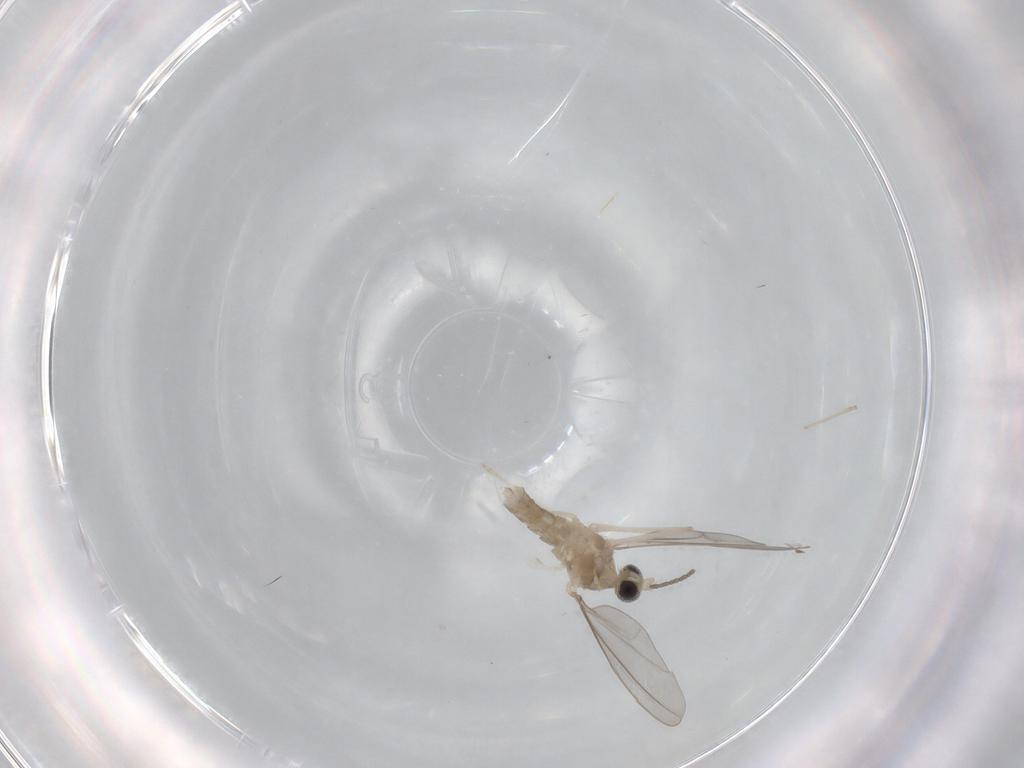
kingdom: Animalia
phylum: Arthropoda
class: Insecta
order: Diptera
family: Cecidomyiidae
